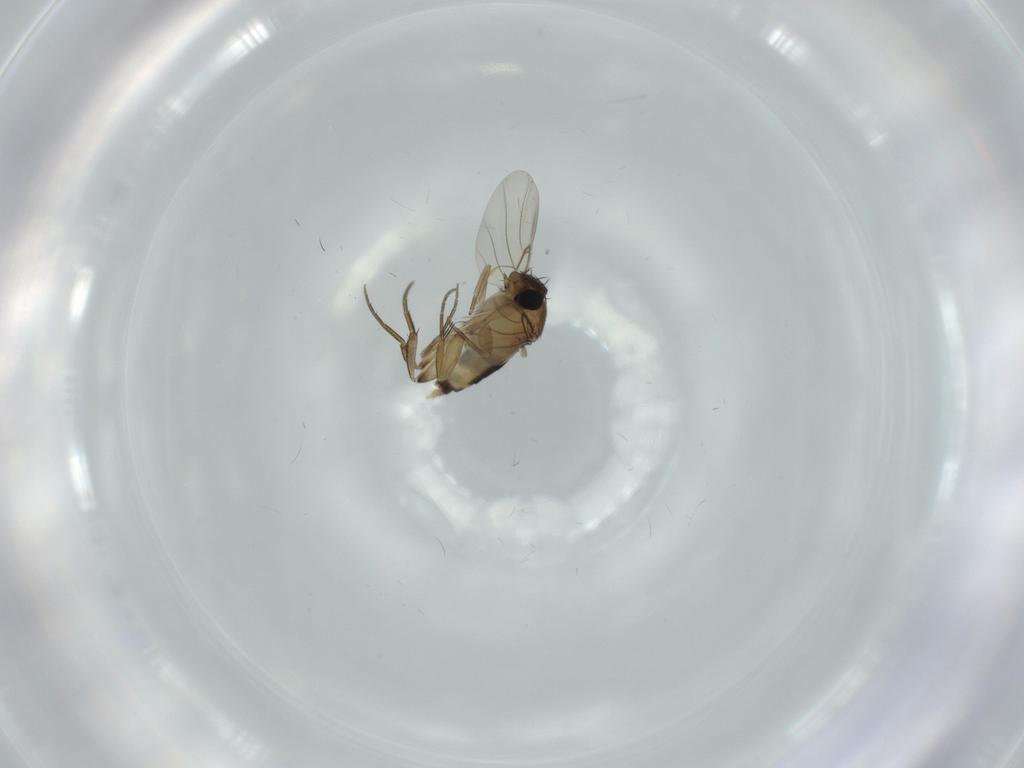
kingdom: Animalia
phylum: Arthropoda
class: Insecta
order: Diptera
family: Phoridae
